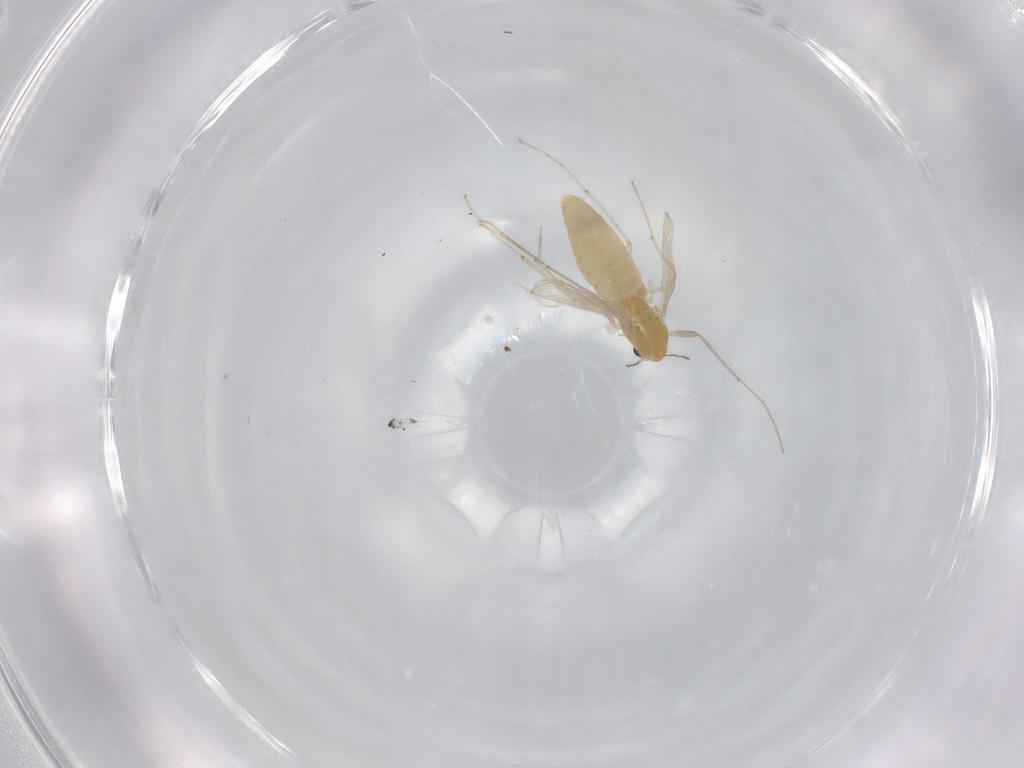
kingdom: Animalia
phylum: Arthropoda
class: Insecta
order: Diptera
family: Chironomidae
